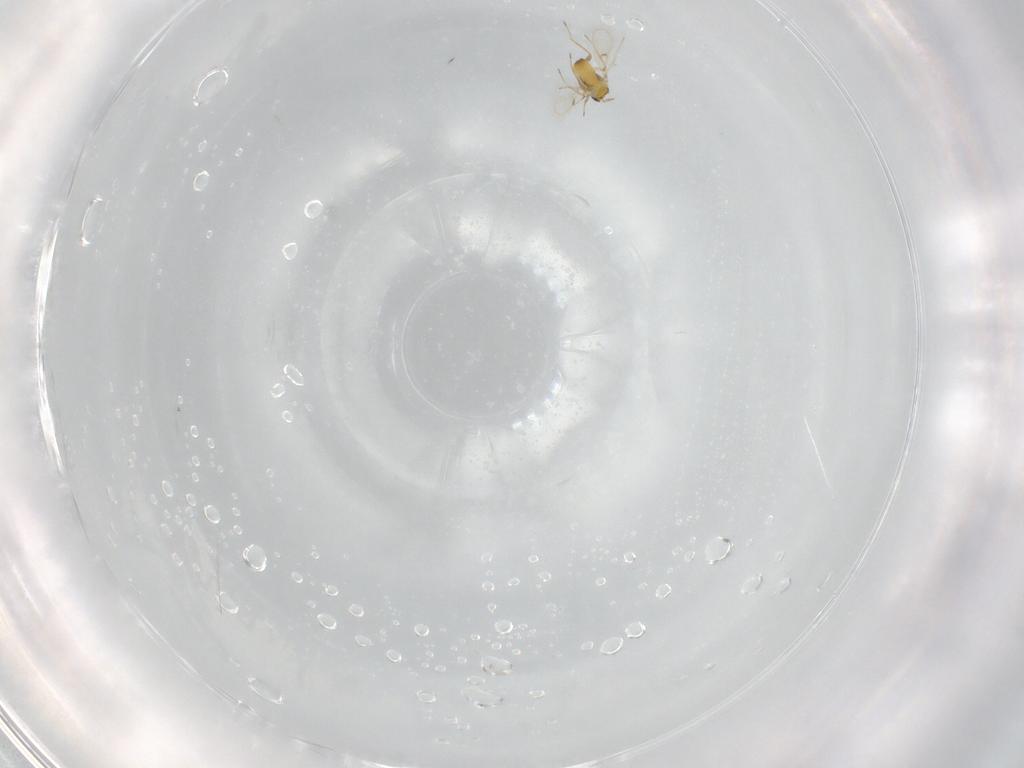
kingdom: Animalia
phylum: Arthropoda
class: Insecta
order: Hymenoptera
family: Trichogrammatidae
